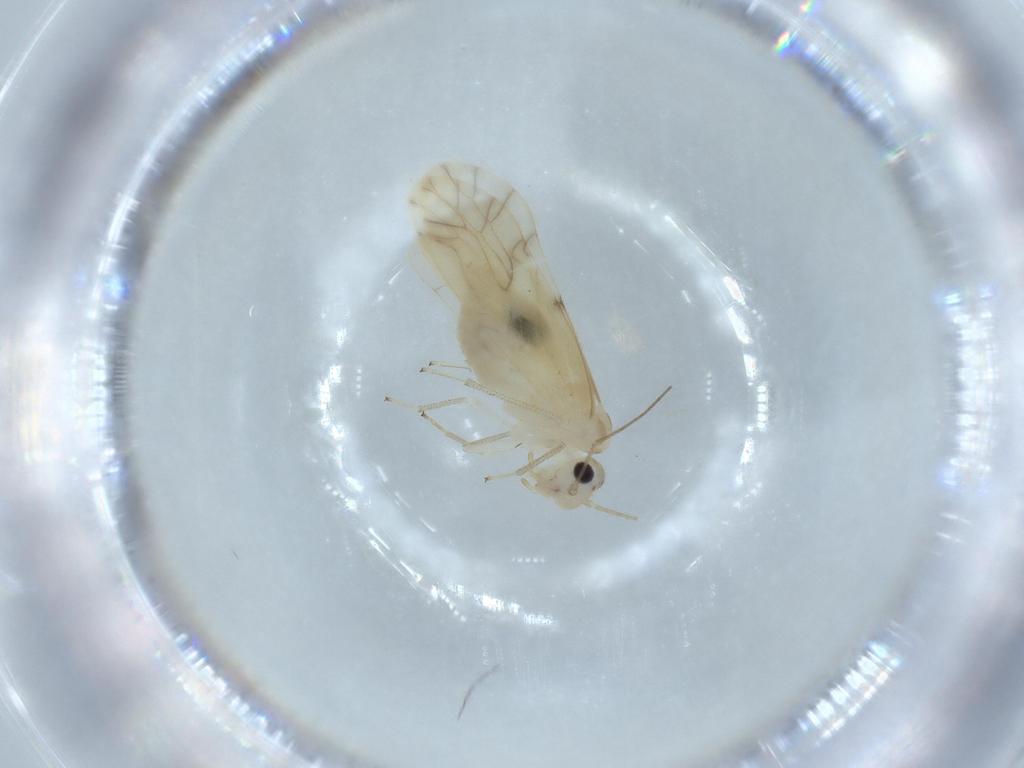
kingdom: Animalia
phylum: Arthropoda
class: Insecta
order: Psocodea
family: Caeciliusidae
